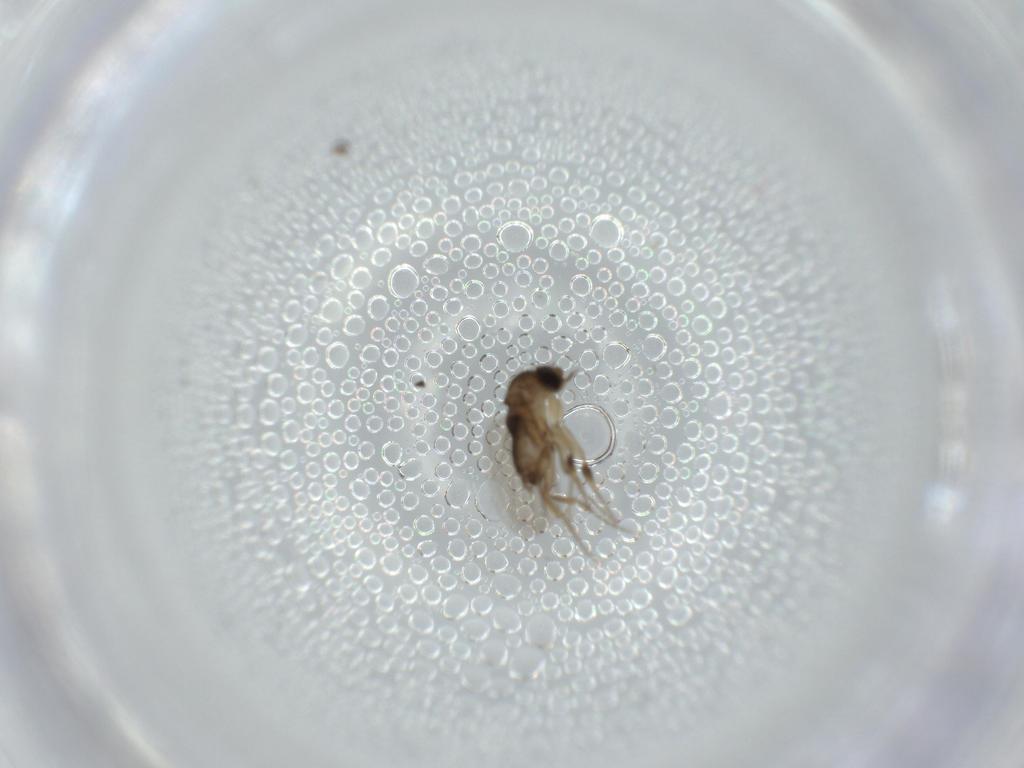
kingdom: Animalia
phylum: Arthropoda
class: Insecta
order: Diptera
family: Phoridae
